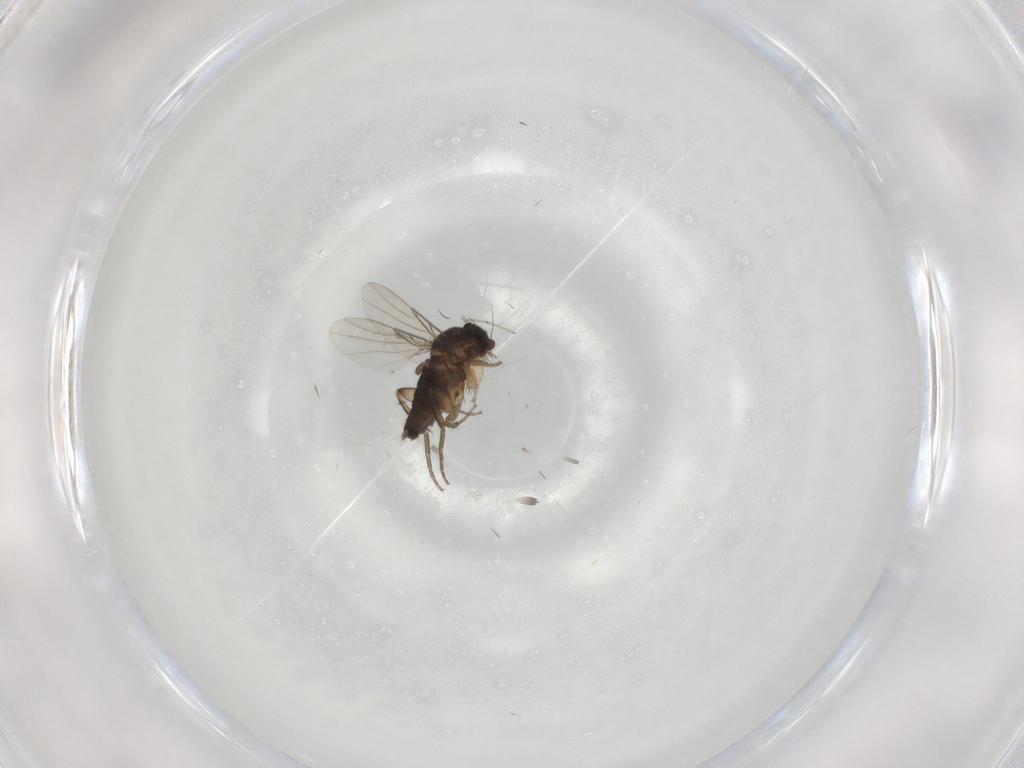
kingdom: Animalia
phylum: Arthropoda
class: Insecta
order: Diptera
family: Phoridae
